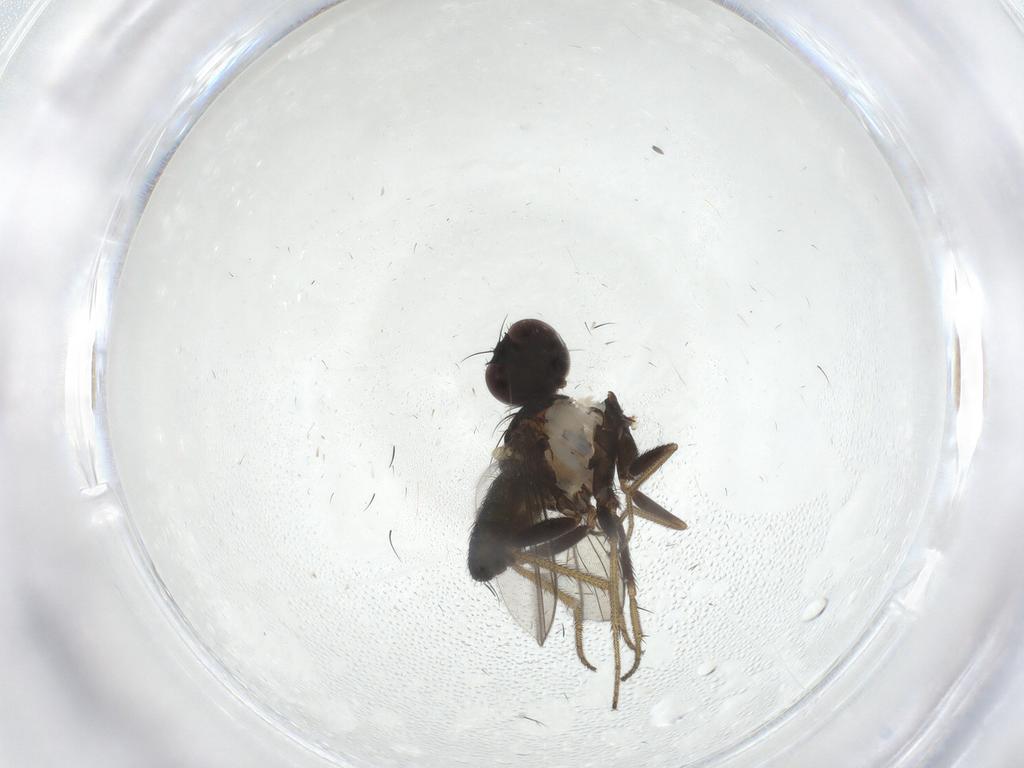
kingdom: Animalia
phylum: Arthropoda
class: Insecta
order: Diptera
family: Dolichopodidae
